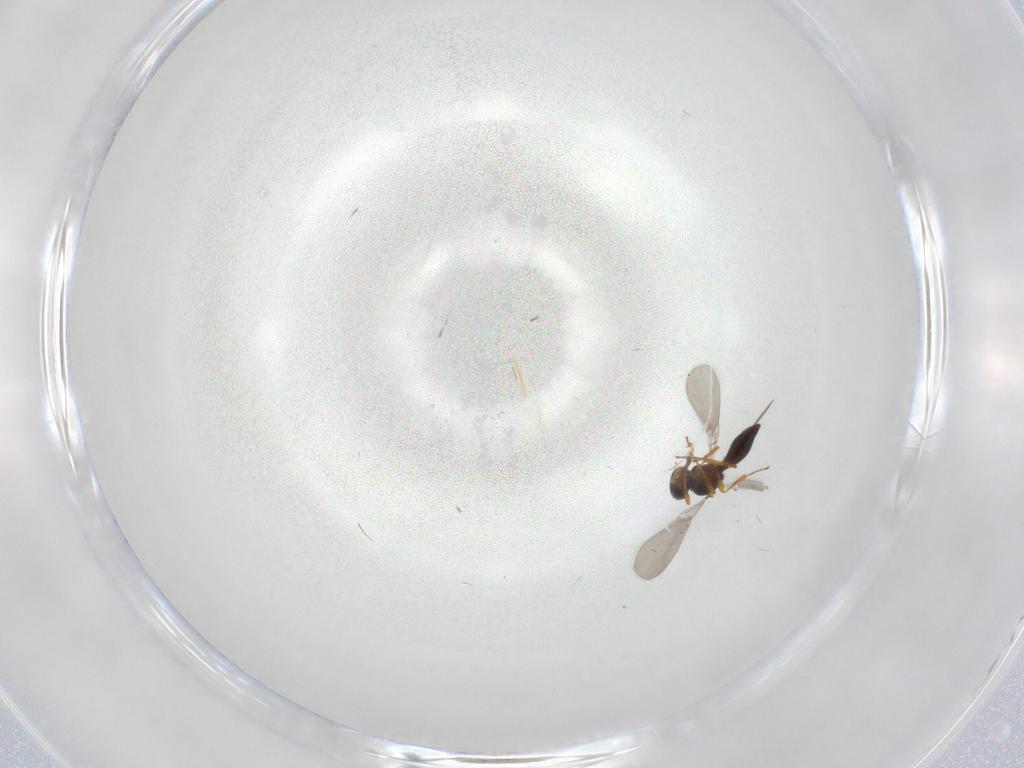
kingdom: Animalia
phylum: Arthropoda
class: Insecta
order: Hymenoptera
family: Platygastridae
